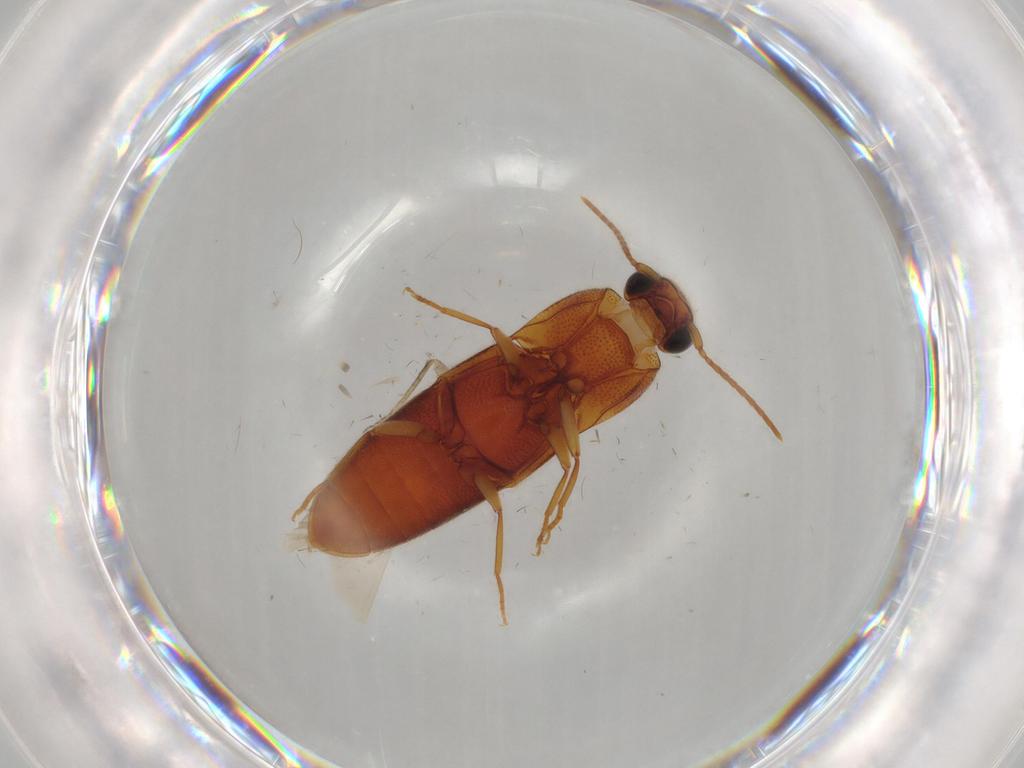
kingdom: Animalia
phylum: Arthropoda
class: Insecta
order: Coleoptera
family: Elateridae
